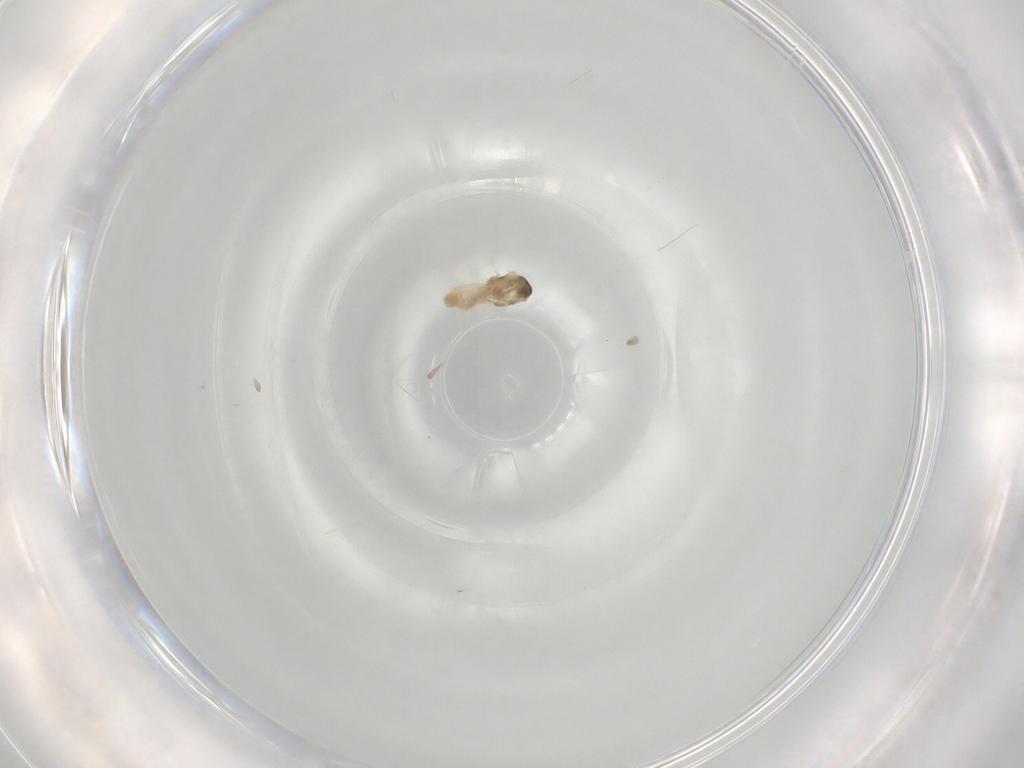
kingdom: Animalia
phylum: Arthropoda
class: Insecta
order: Diptera
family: Cecidomyiidae
